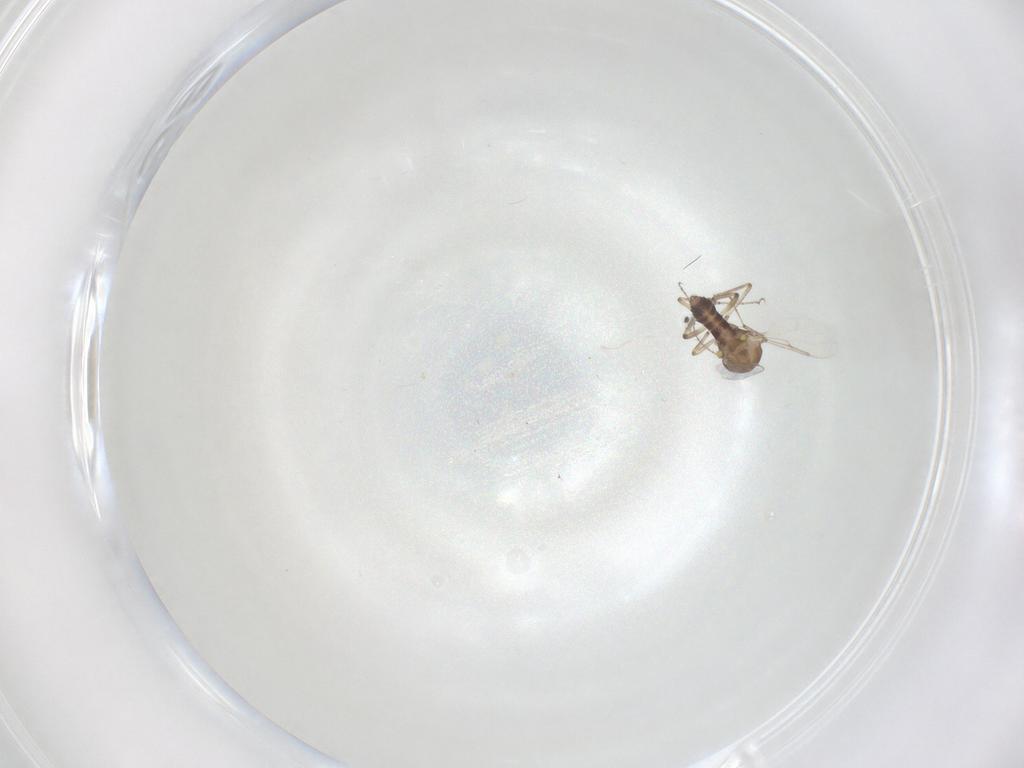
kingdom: Animalia
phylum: Arthropoda
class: Insecta
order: Diptera
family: Ceratopogonidae
